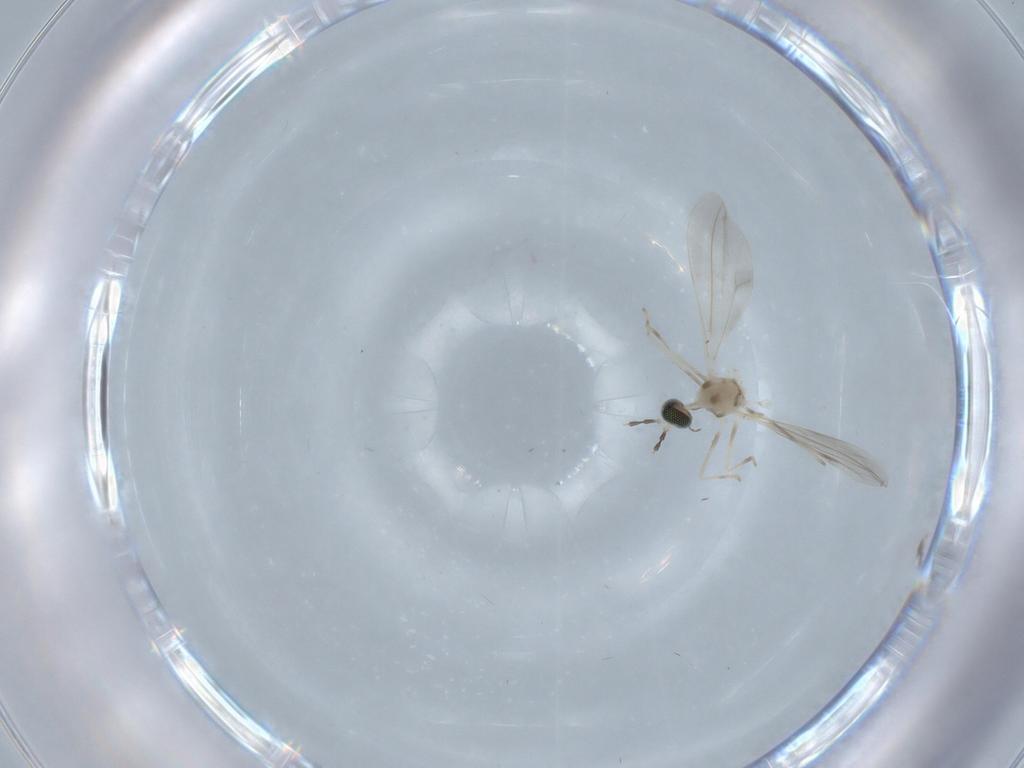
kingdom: Animalia
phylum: Arthropoda
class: Insecta
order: Diptera
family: Cecidomyiidae
